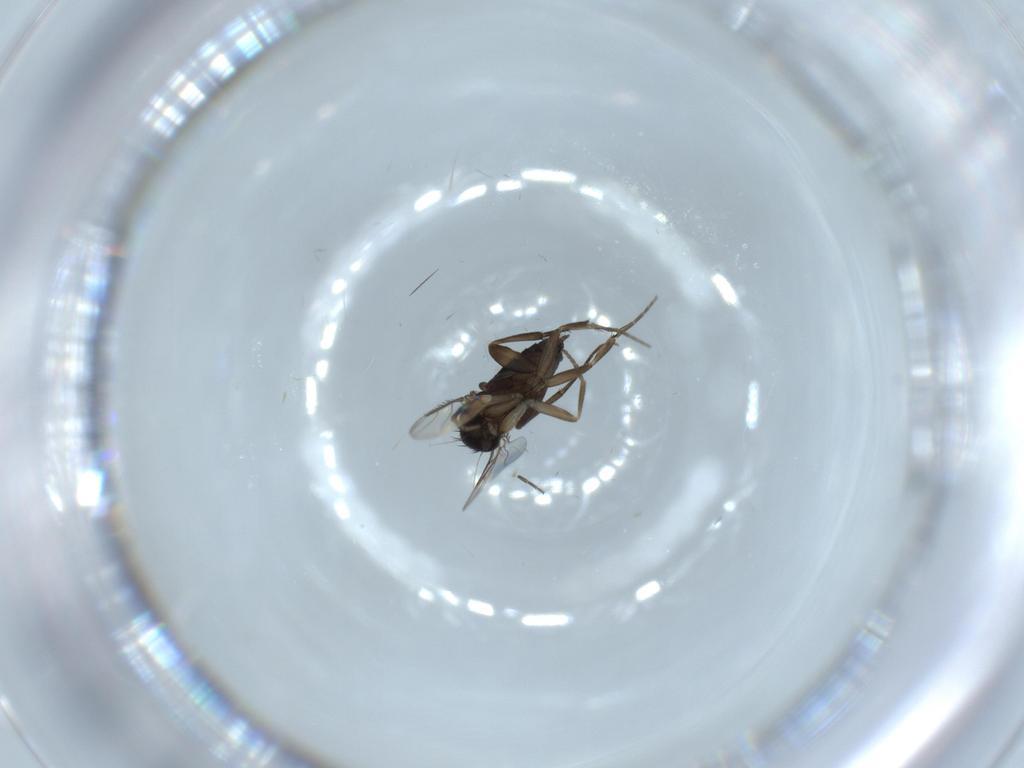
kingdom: Animalia
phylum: Arthropoda
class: Insecta
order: Diptera
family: Phoridae
